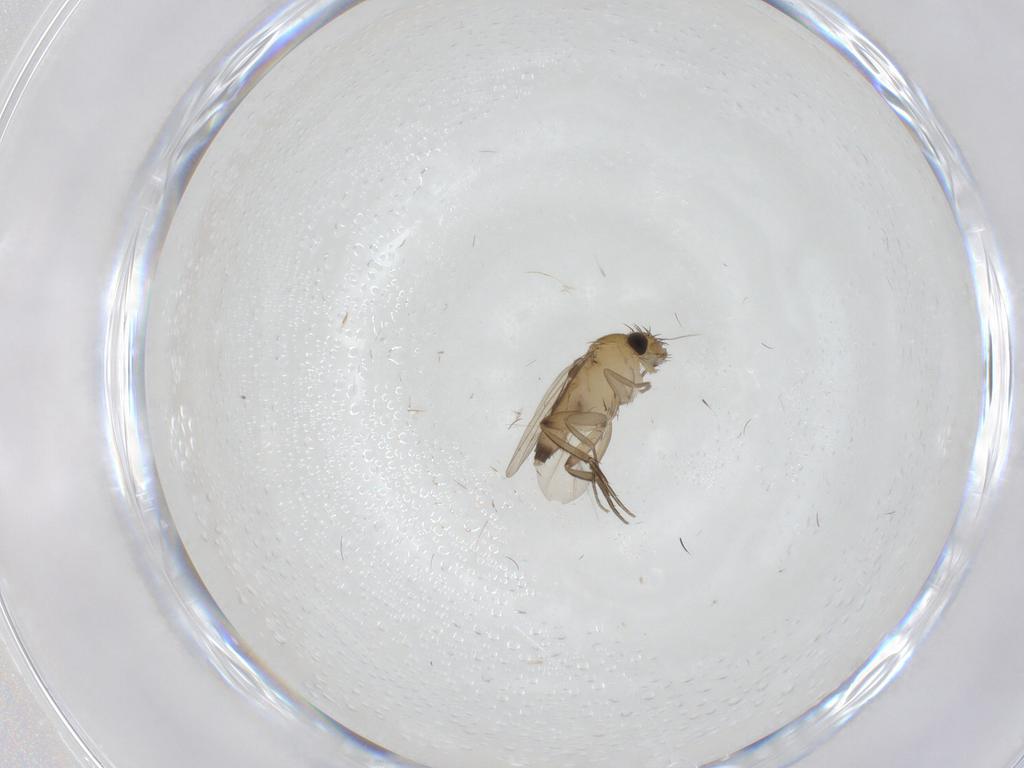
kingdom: Animalia
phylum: Arthropoda
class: Insecta
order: Diptera
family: Phoridae
